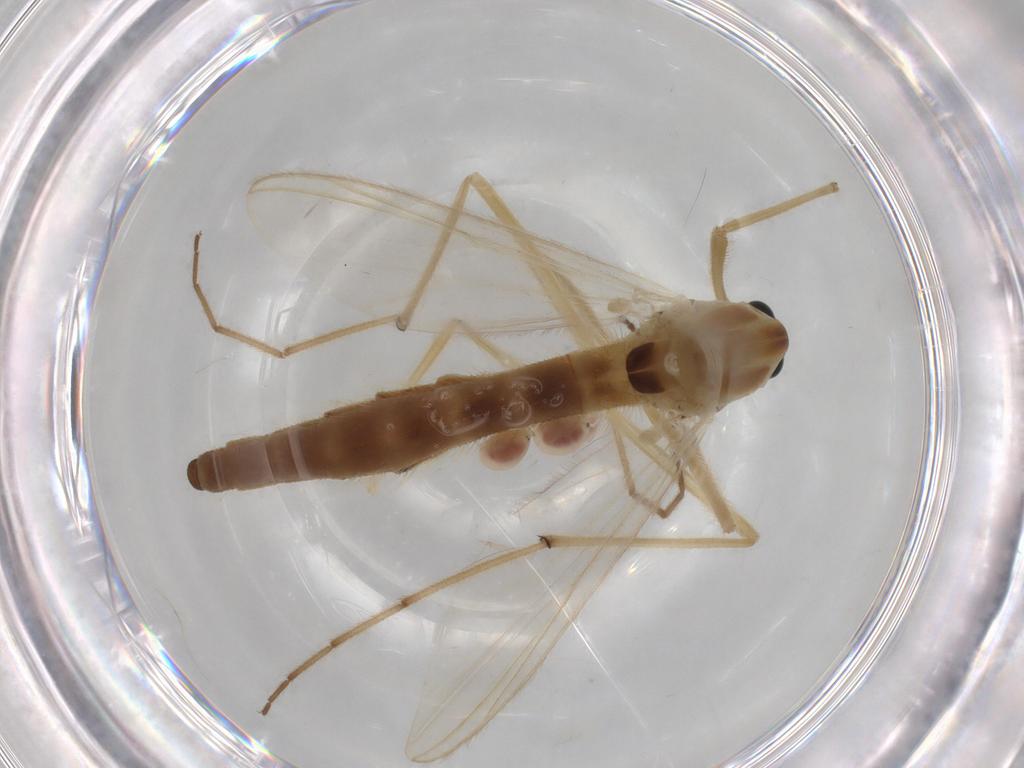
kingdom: Animalia
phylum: Arthropoda
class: Insecta
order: Diptera
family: Chironomidae
